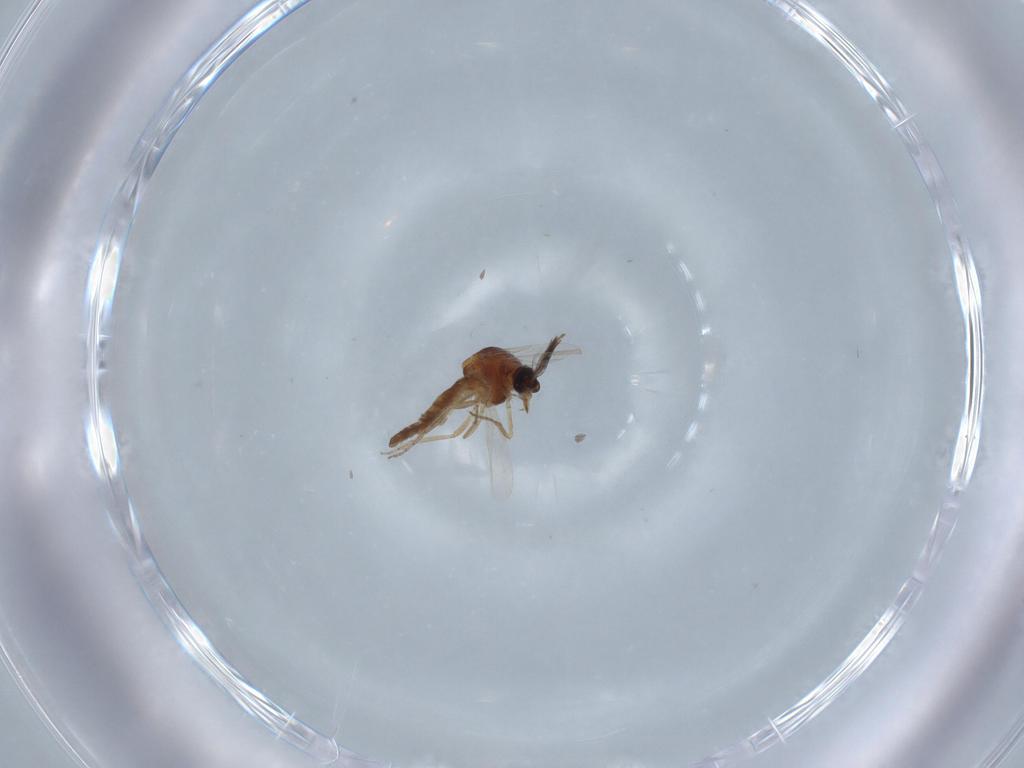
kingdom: Animalia
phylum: Arthropoda
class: Insecta
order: Diptera
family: Ceratopogonidae
